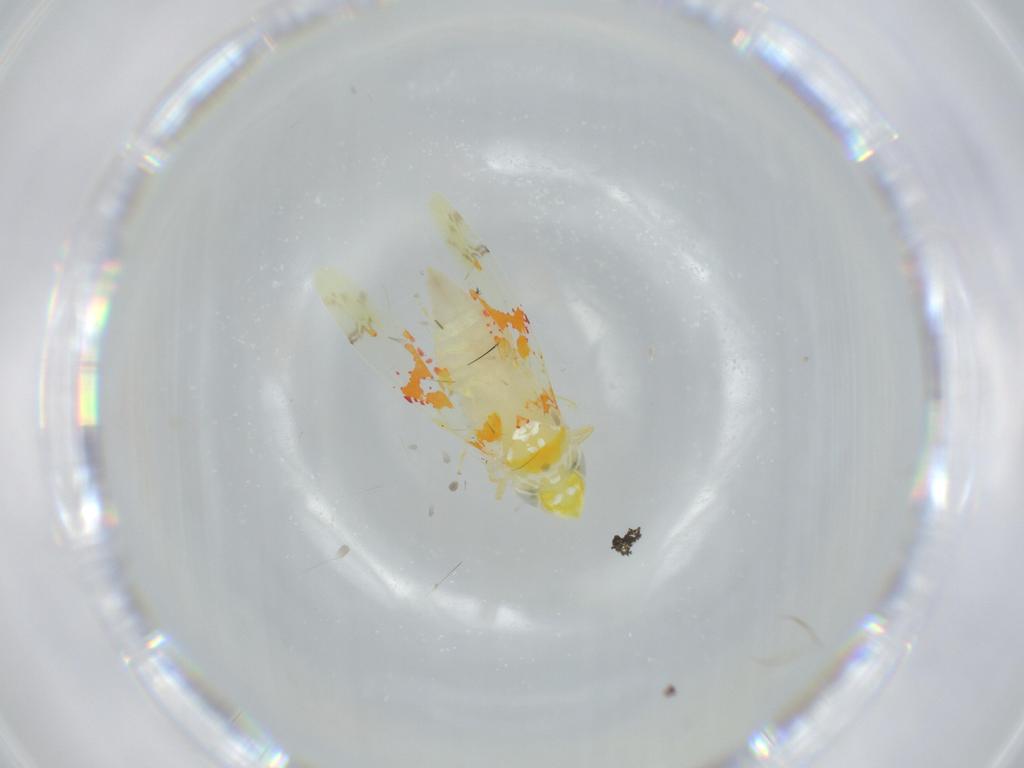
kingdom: Animalia
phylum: Arthropoda
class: Insecta
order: Hemiptera
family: Cicadellidae
